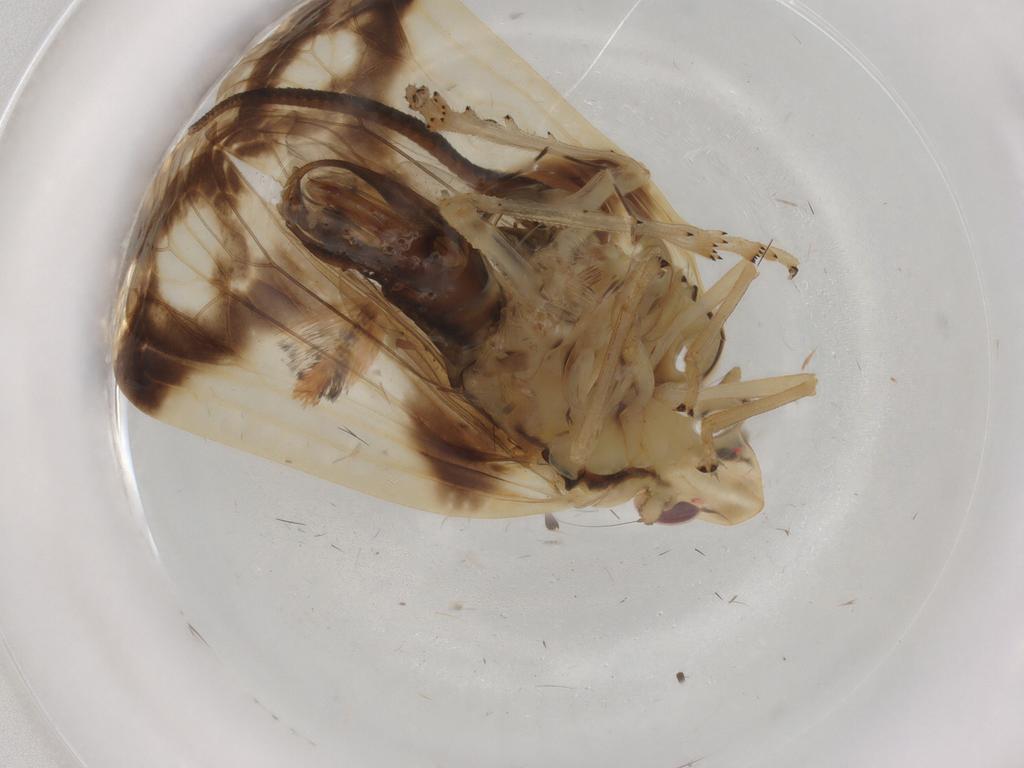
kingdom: Animalia
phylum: Arthropoda
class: Insecta
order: Hemiptera
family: Tropiduchidae
